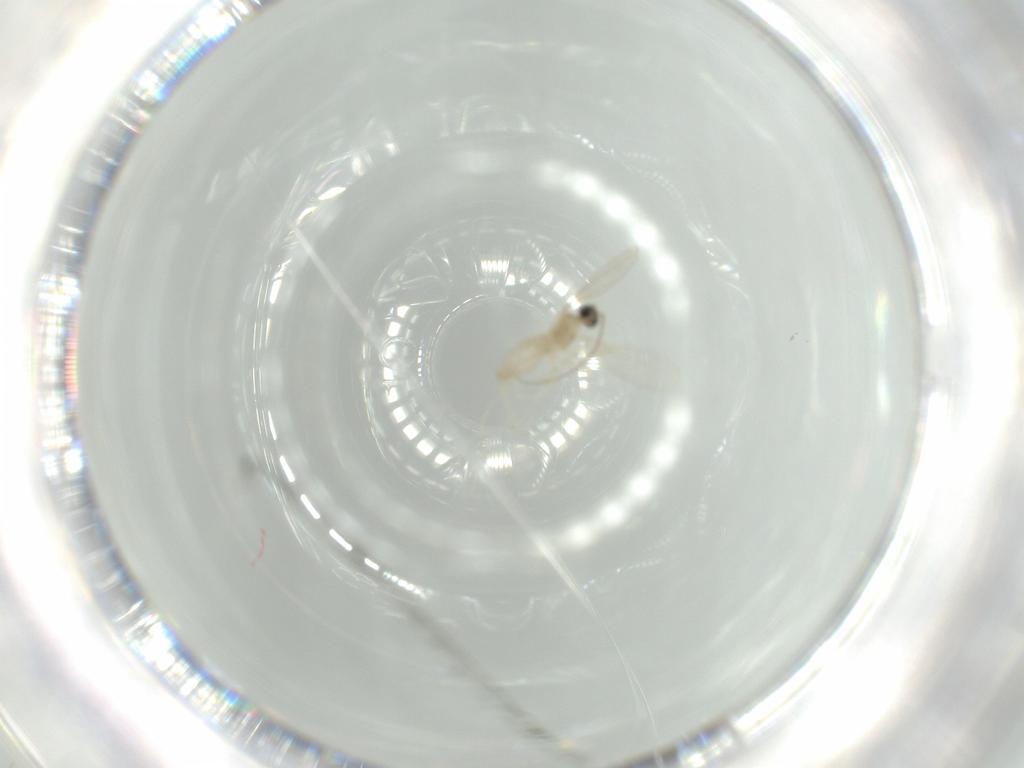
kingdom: Animalia
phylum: Arthropoda
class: Insecta
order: Diptera
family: Cecidomyiidae
